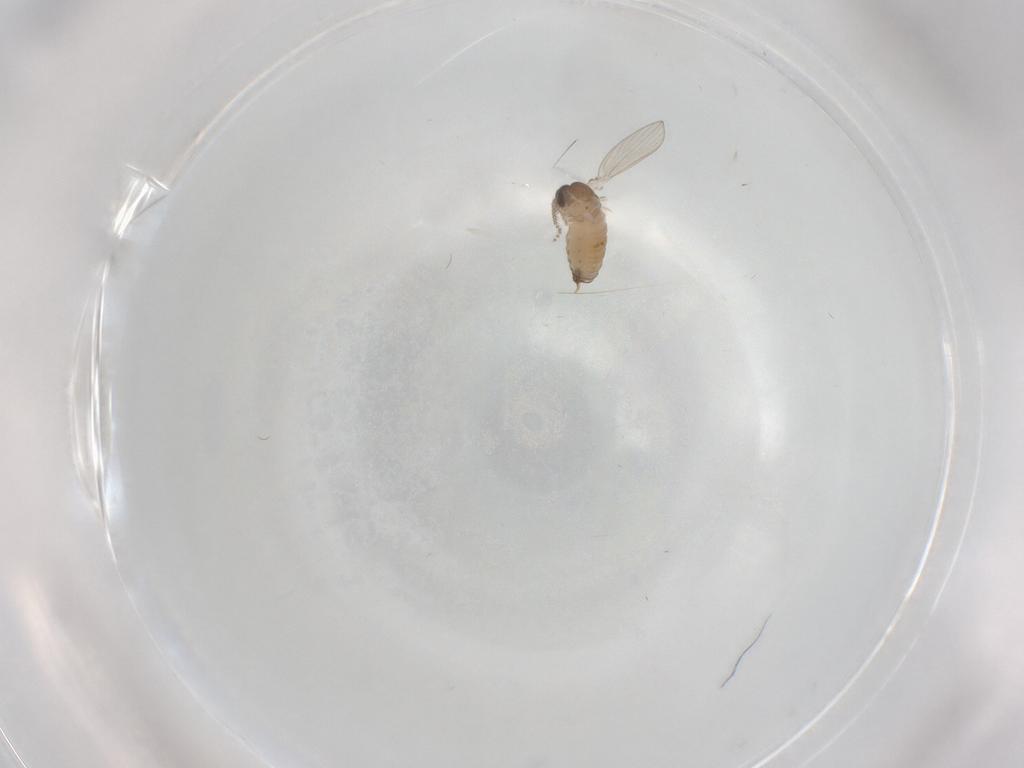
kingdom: Animalia
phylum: Arthropoda
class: Insecta
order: Diptera
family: Psychodidae
